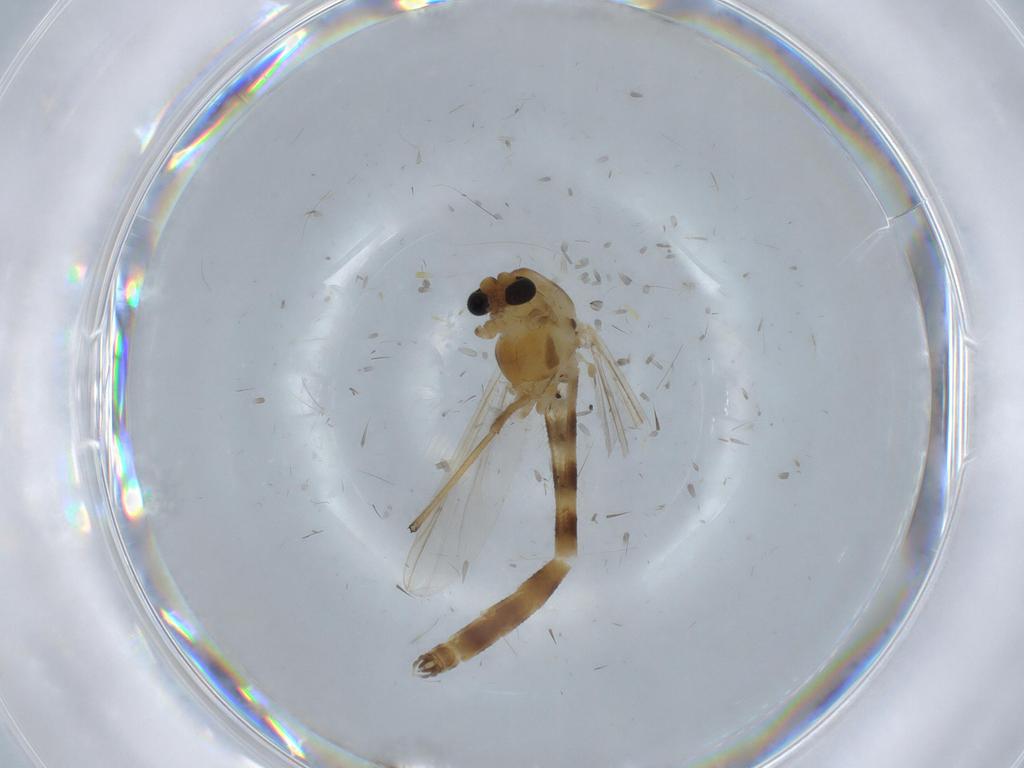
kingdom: Animalia
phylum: Arthropoda
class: Insecta
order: Diptera
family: Chironomidae
